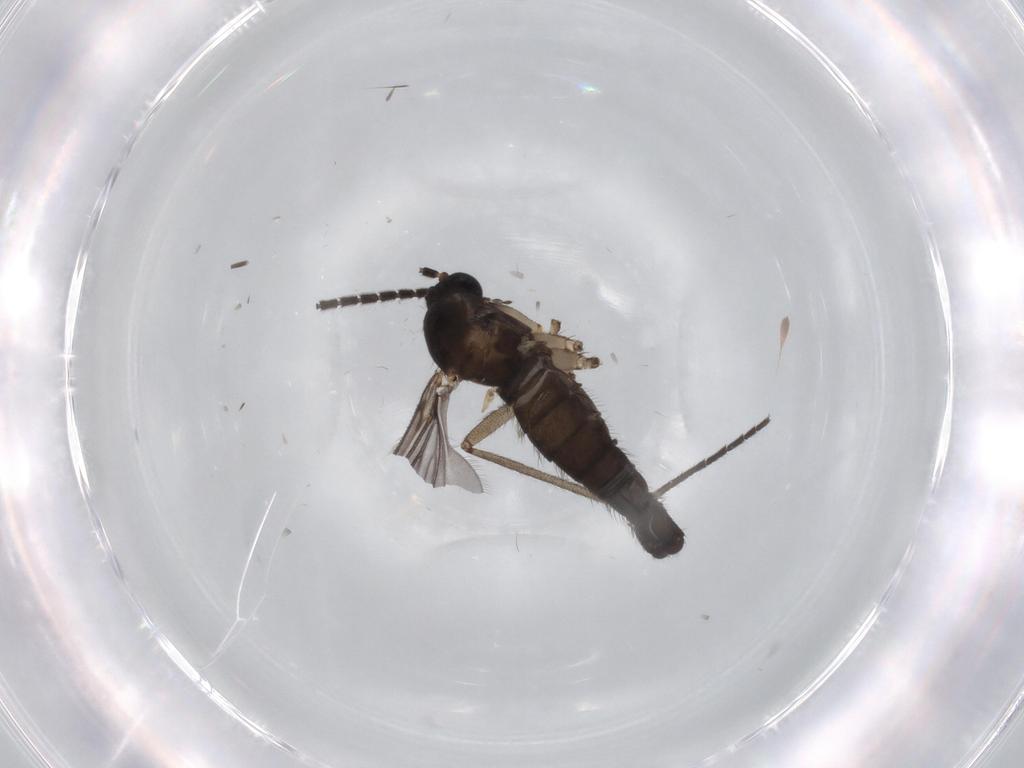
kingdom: Animalia
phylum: Arthropoda
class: Insecta
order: Diptera
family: Sciaridae
